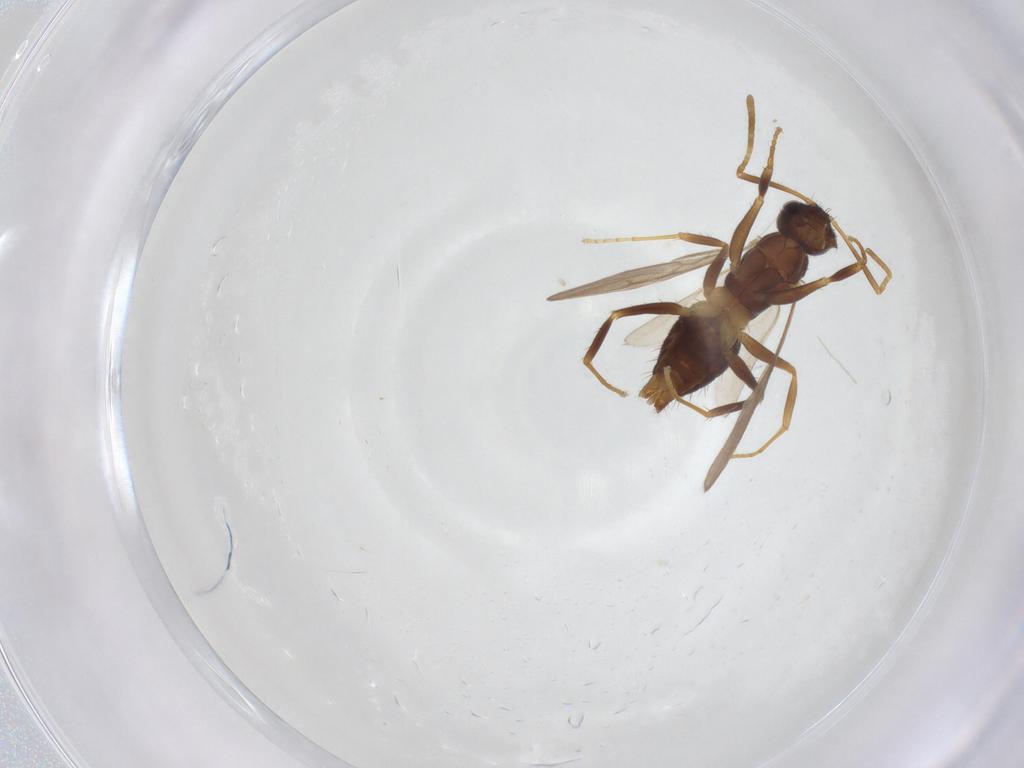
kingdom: Animalia
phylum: Arthropoda
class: Insecta
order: Hymenoptera
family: Formicidae
